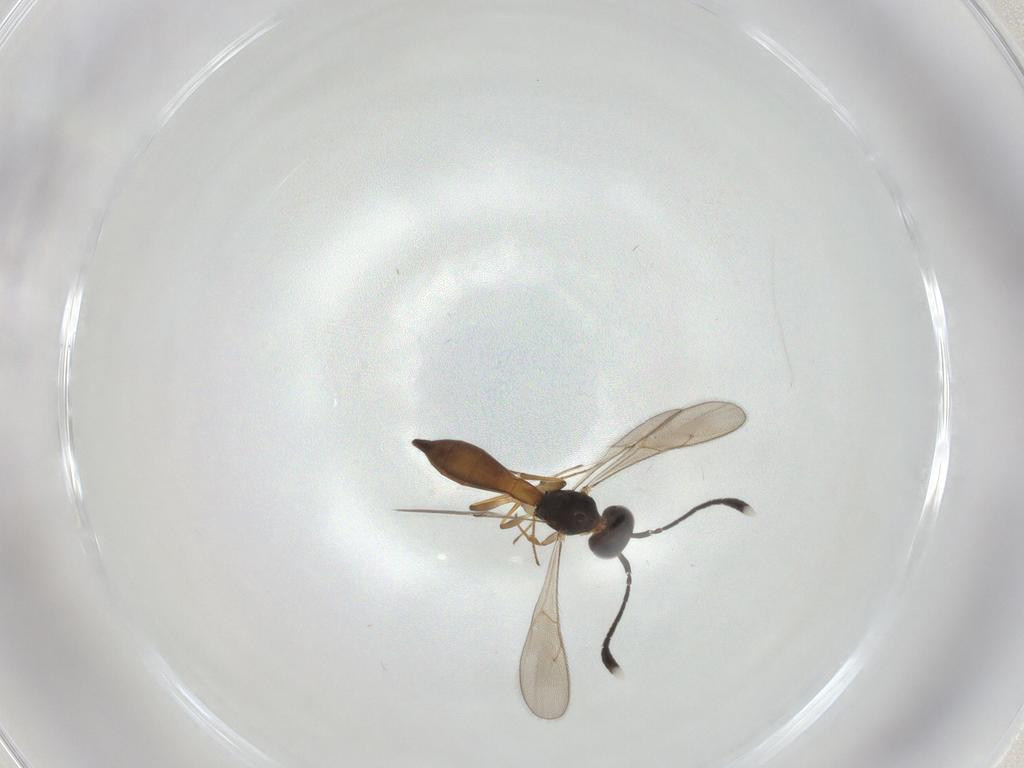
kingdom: Animalia
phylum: Arthropoda
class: Insecta
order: Hymenoptera
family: Scelionidae
